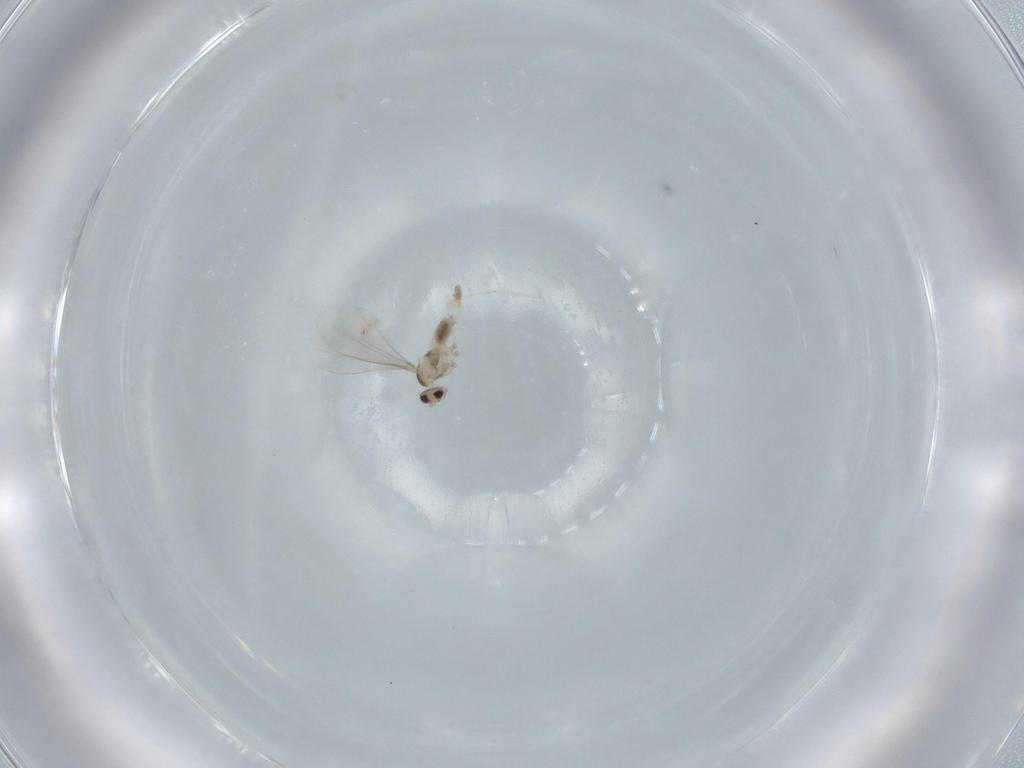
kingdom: Animalia
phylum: Arthropoda
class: Insecta
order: Diptera
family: Cecidomyiidae
